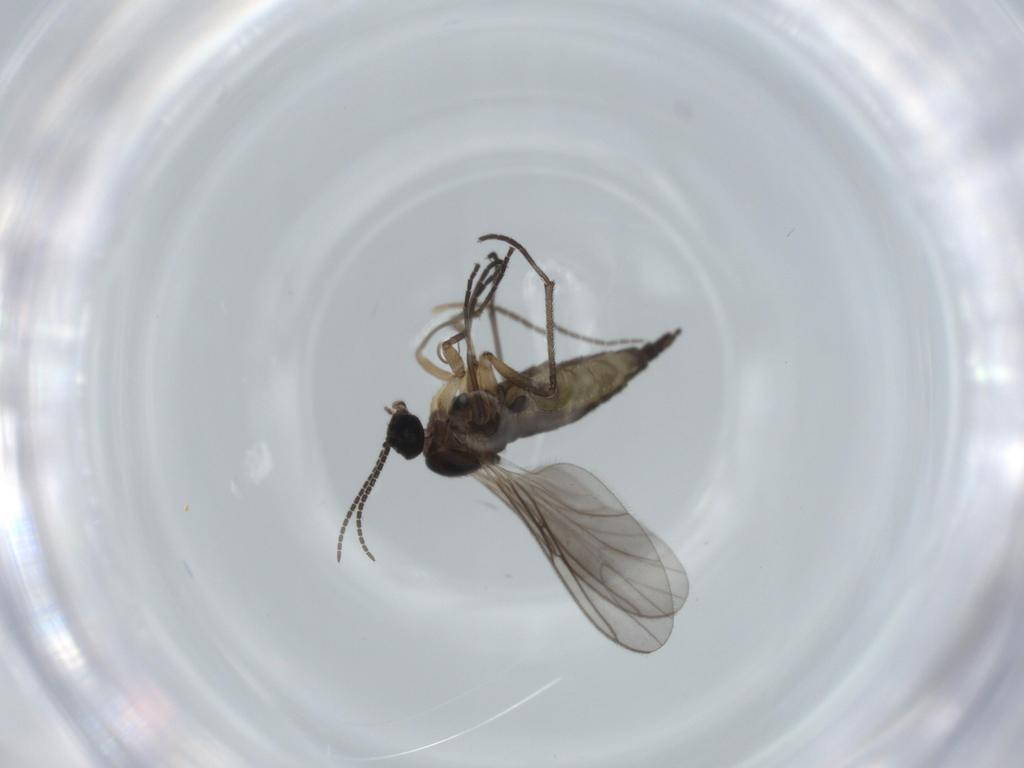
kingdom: Animalia
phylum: Arthropoda
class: Insecta
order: Diptera
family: Sciaridae
